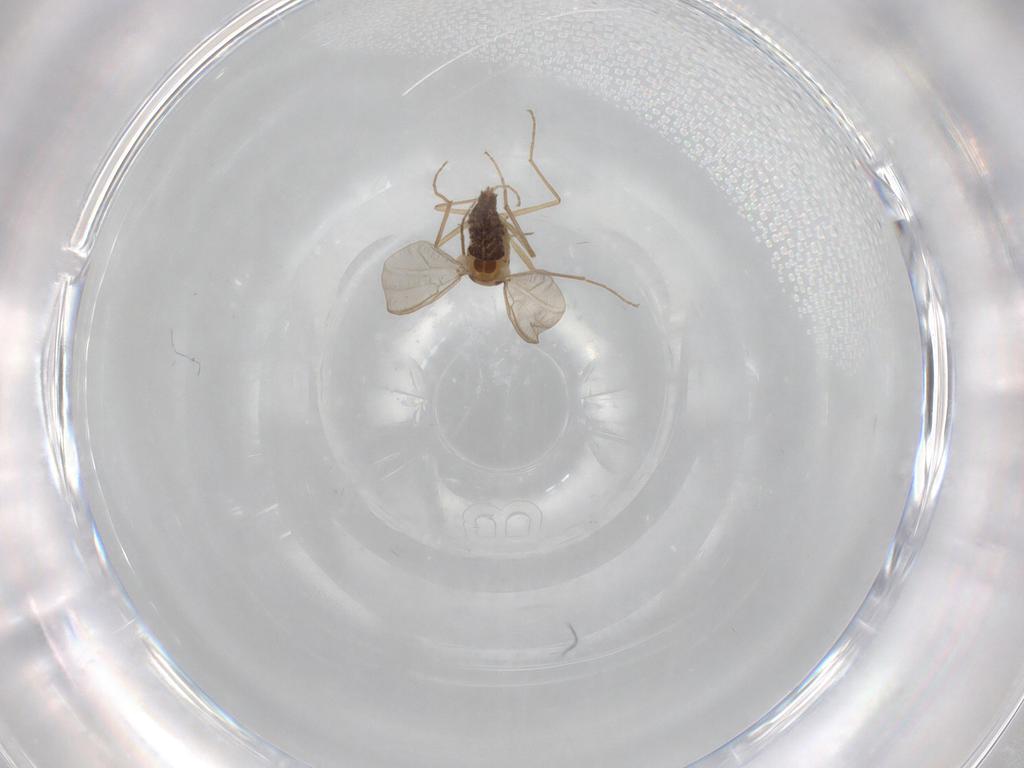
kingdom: Animalia
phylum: Arthropoda
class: Insecta
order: Diptera
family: Chironomidae
